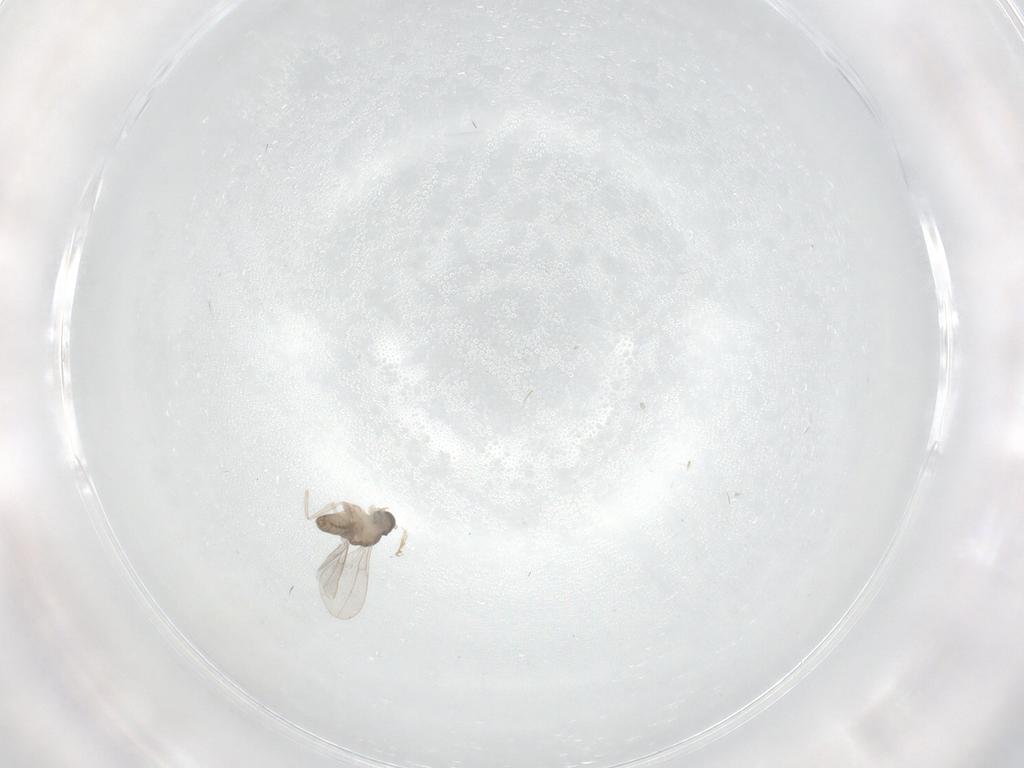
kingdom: Animalia
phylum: Arthropoda
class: Insecta
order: Diptera
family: Cecidomyiidae
